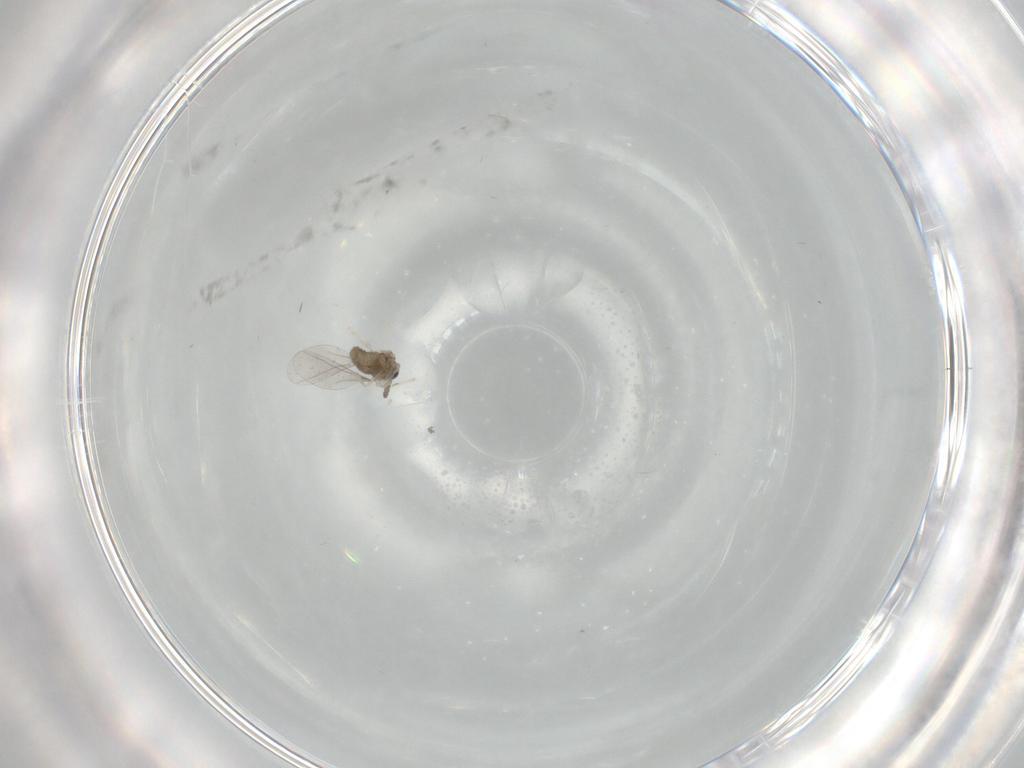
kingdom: Animalia
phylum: Arthropoda
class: Insecta
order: Diptera
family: Cecidomyiidae
